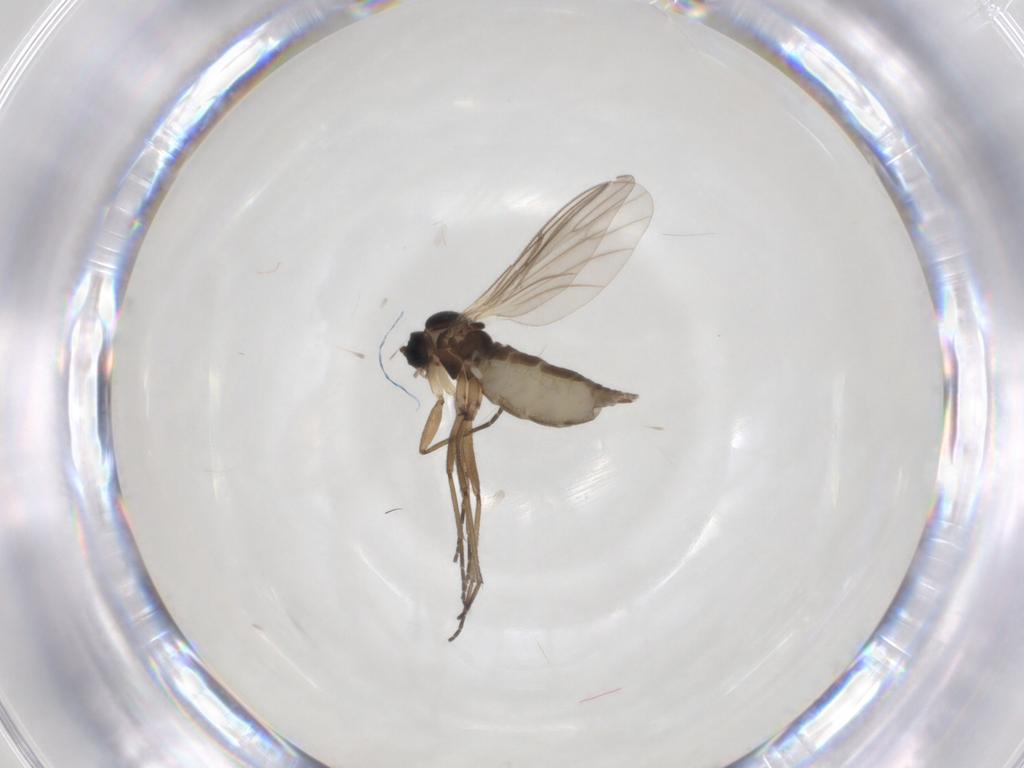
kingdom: Animalia
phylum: Arthropoda
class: Insecta
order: Diptera
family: Chironomidae
